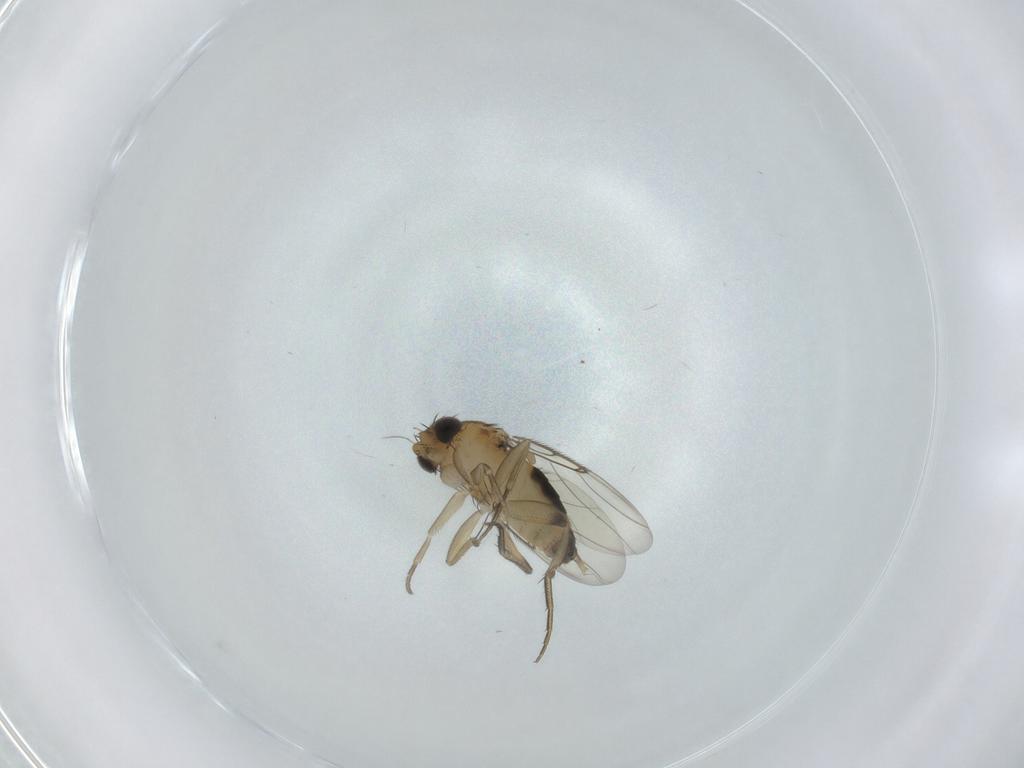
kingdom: Animalia
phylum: Arthropoda
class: Insecta
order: Diptera
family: Phoridae
